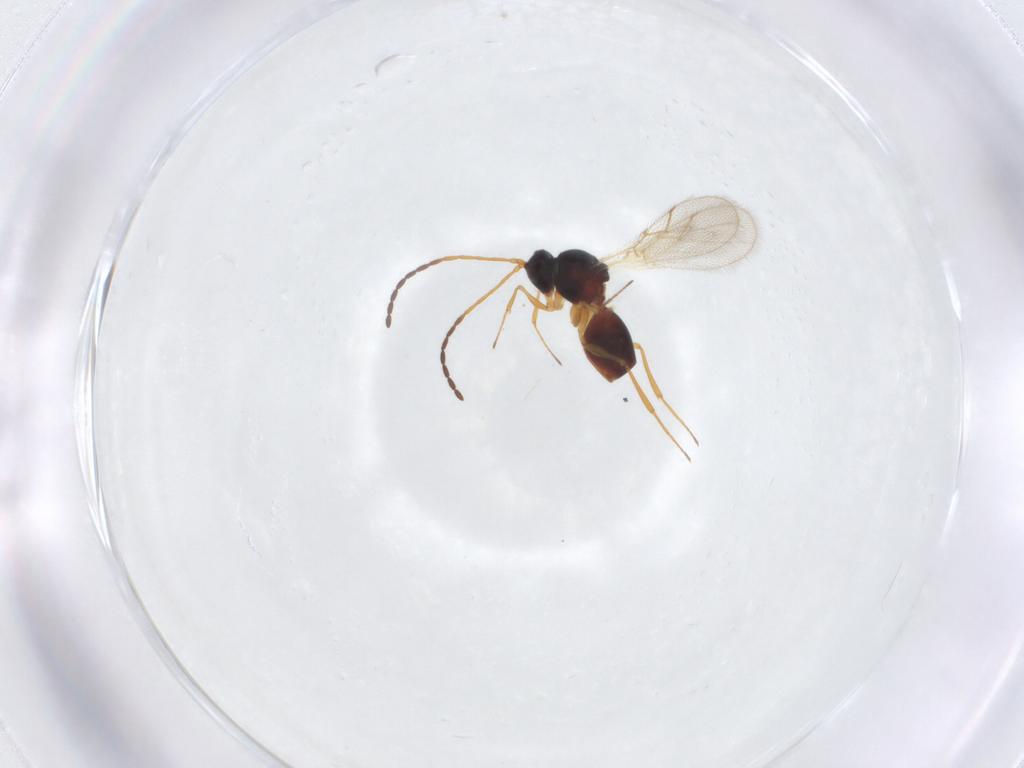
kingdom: Animalia
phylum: Arthropoda
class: Insecta
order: Hymenoptera
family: Figitidae
